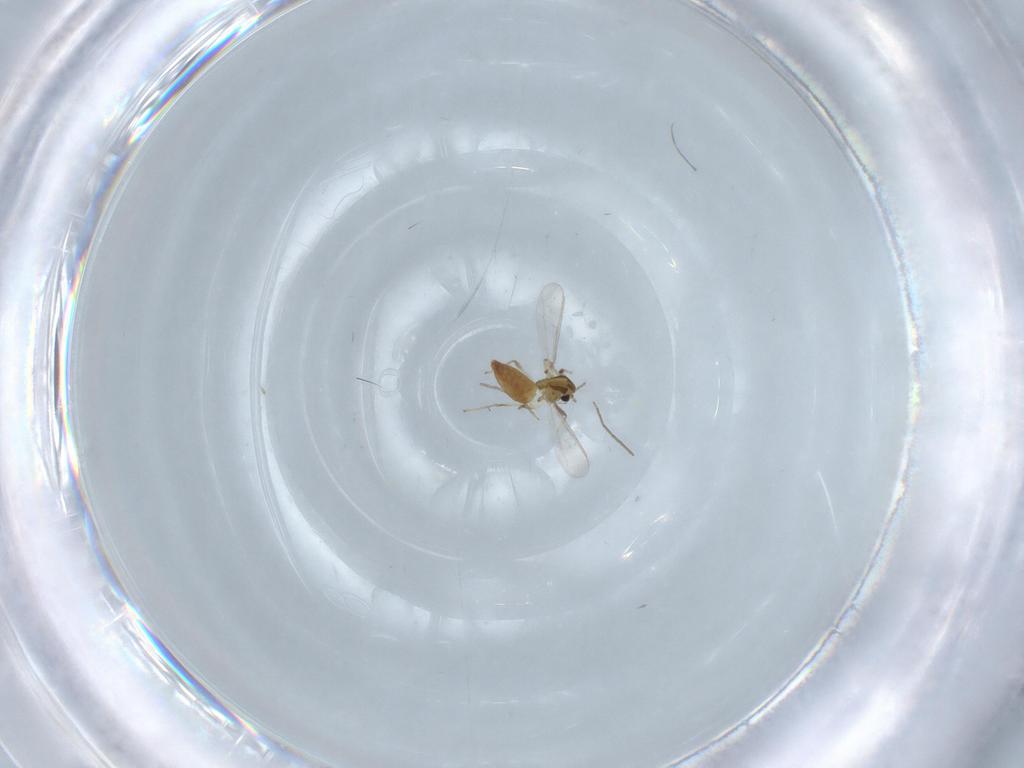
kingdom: Animalia
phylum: Arthropoda
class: Insecta
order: Diptera
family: Chironomidae
